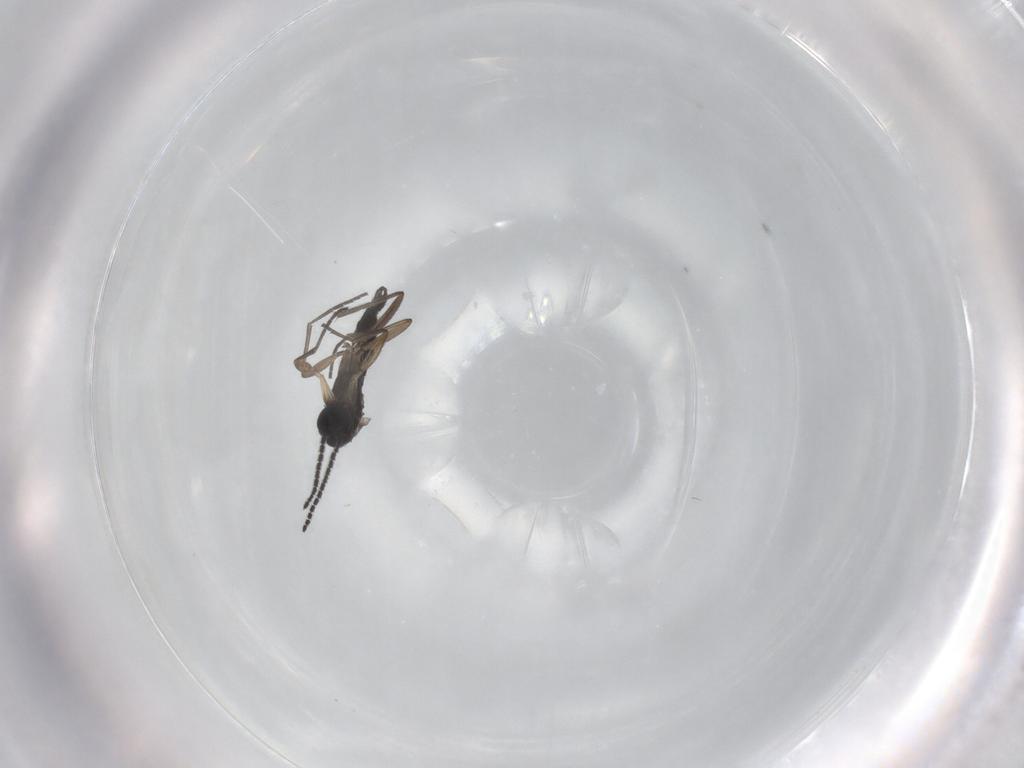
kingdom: Animalia
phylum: Arthropoda
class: Insecta
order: Diptera
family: Sciaridae
